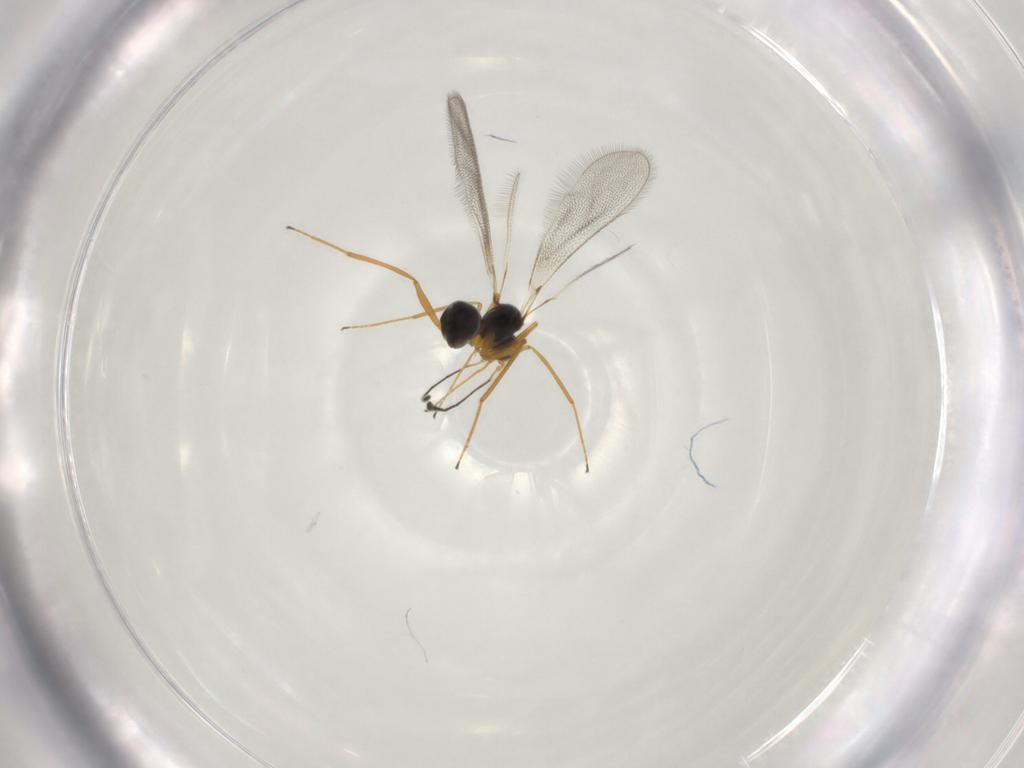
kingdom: Animalia
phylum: Arthropoda
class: Insecta
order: Hymenoptera
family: Mymaridae
